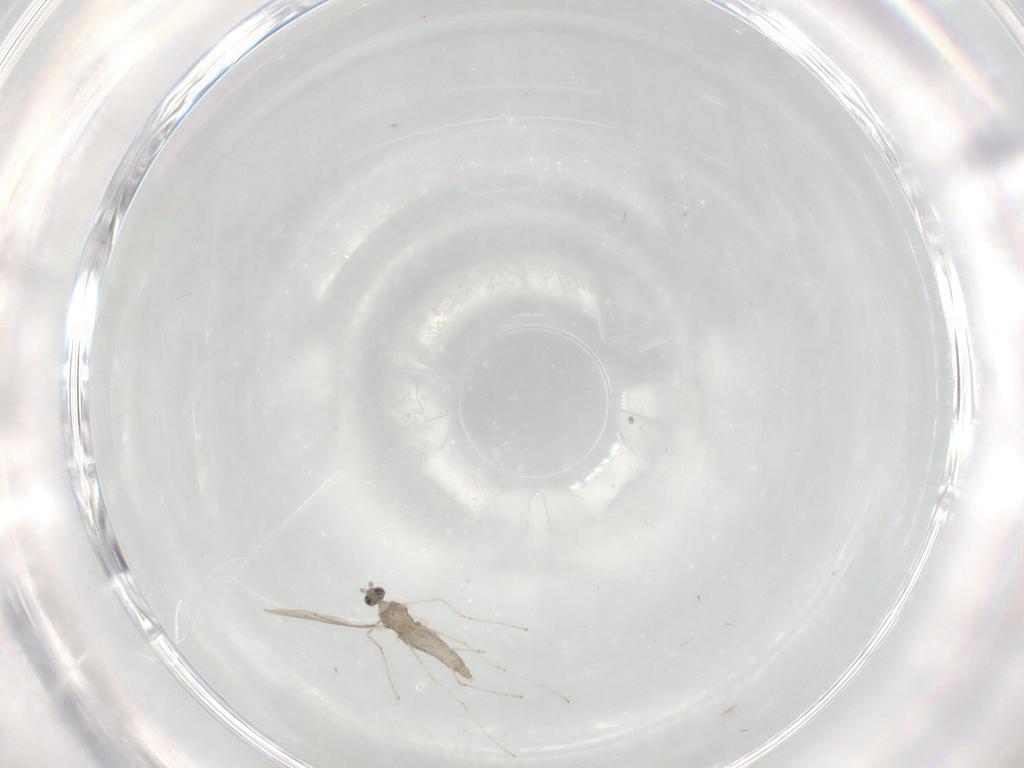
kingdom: Animalia
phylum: Arthropoda
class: Insecta
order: Diptera
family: Cecidomyiidae
